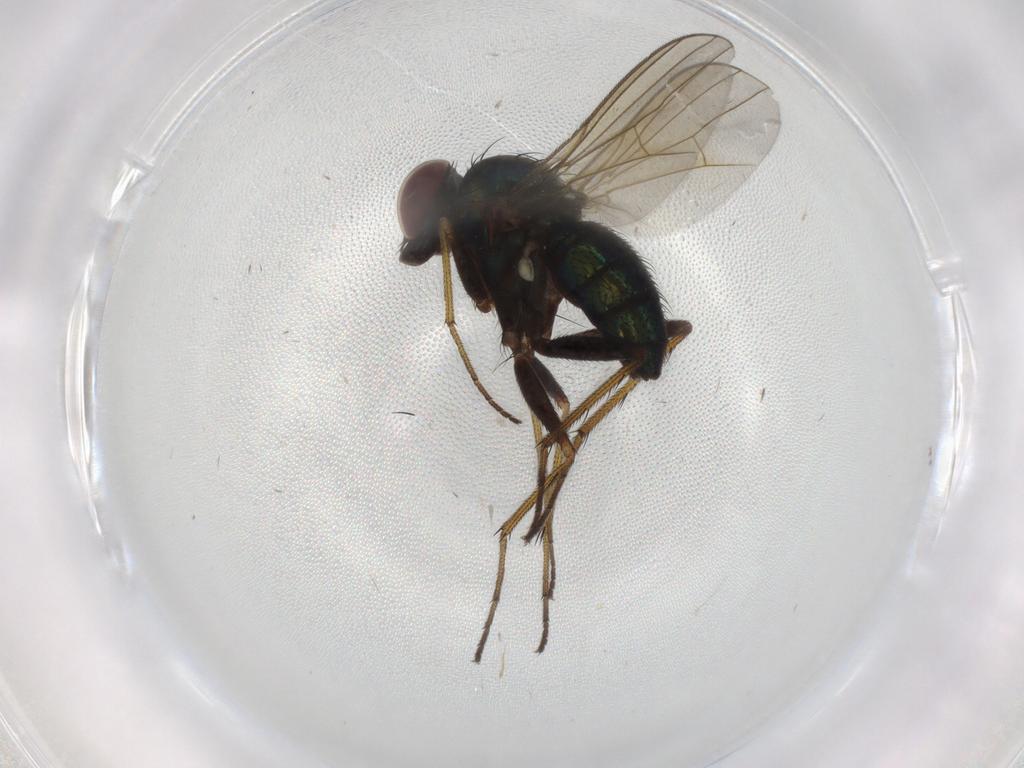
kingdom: Animalia
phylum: Arthropoda
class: Insecta
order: Diptera
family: Dolichopodidae
